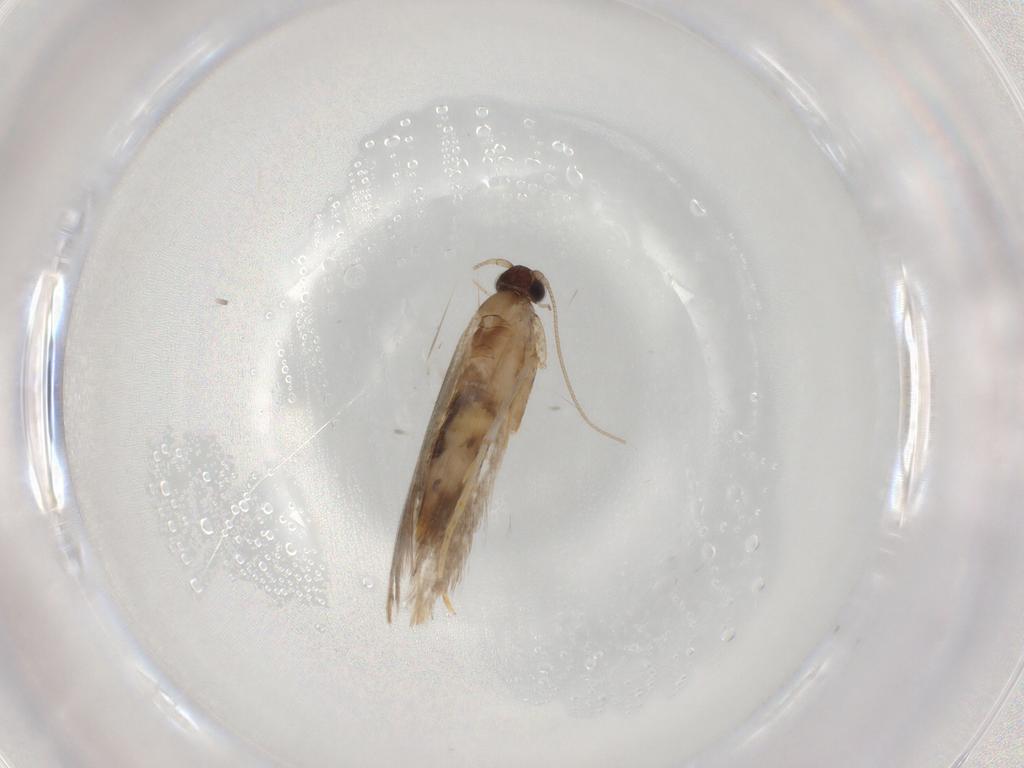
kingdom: Animalia
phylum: Arthropoda
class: Insecta
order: Lepidoptera
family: Tineidae
